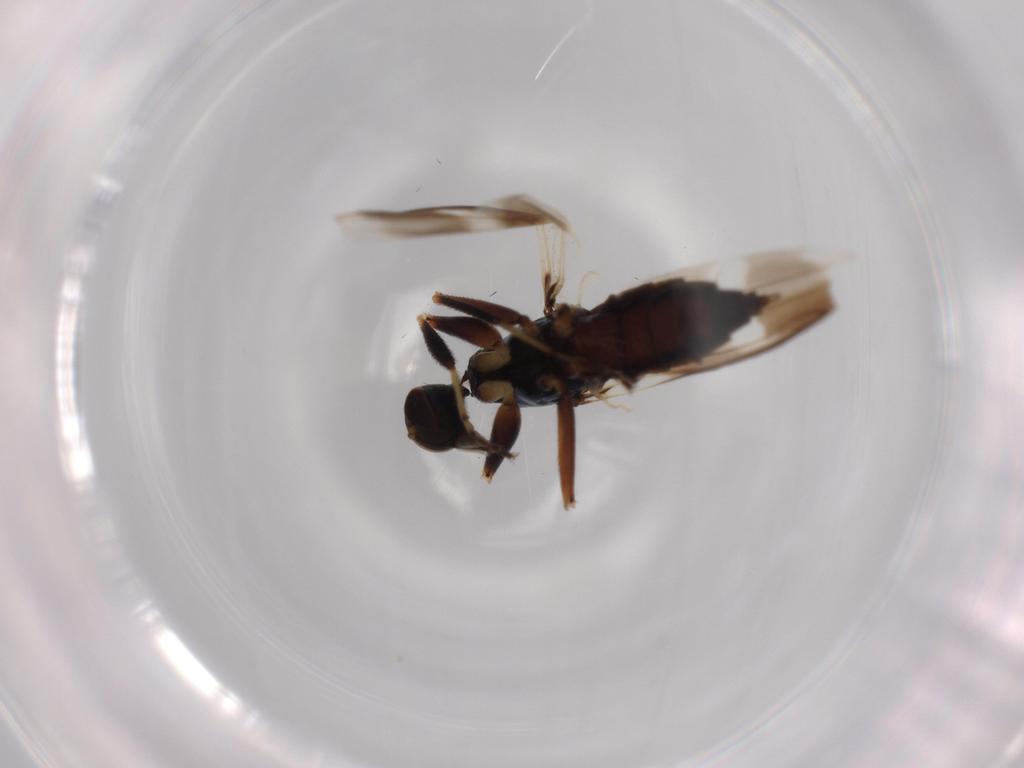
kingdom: Animalia
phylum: Arthropoda
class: Insecta
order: Diptera
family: Hybotidae
